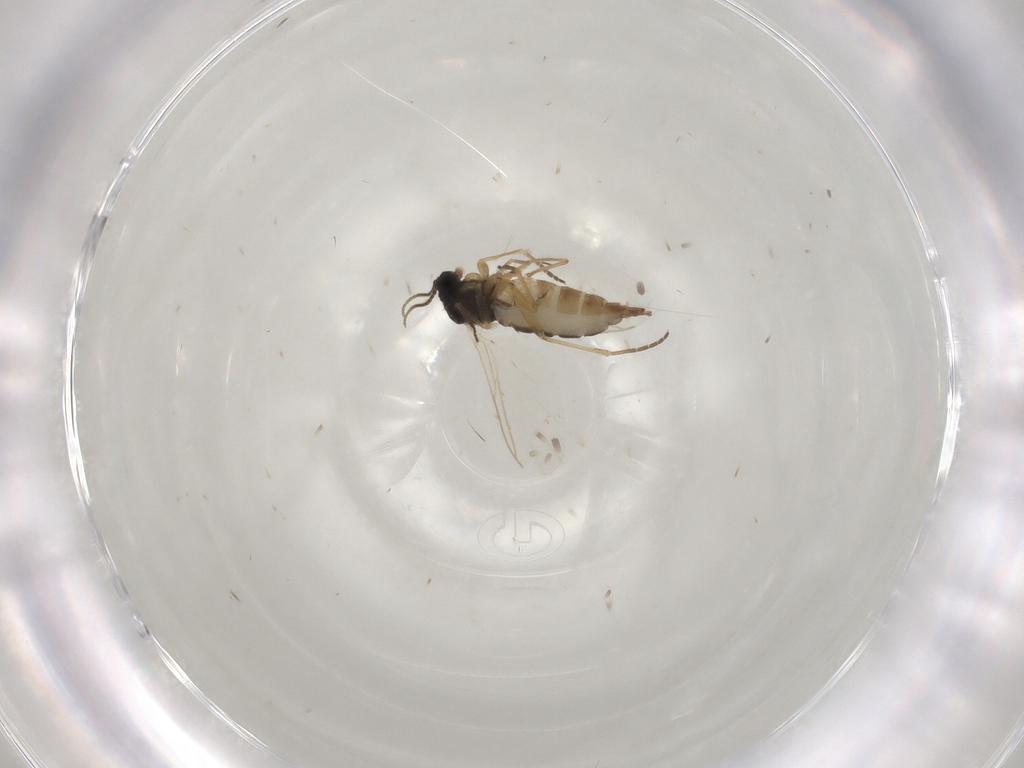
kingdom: Animalia
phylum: Arthropoda
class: Insecta
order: Diptera
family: Sciaridae
